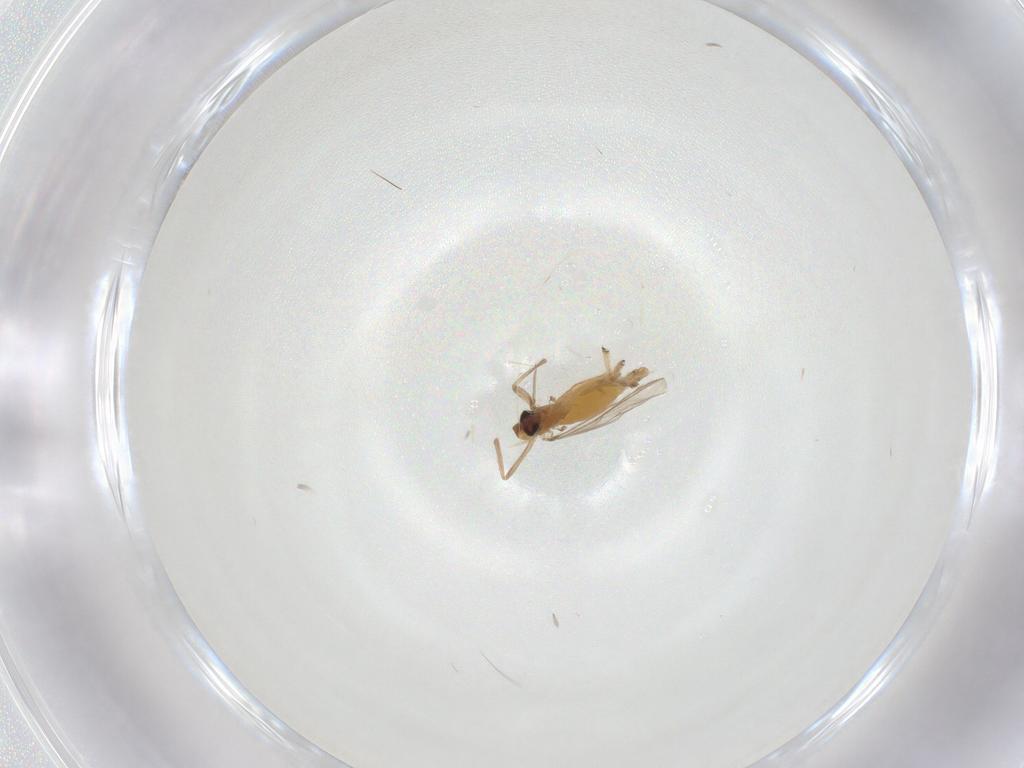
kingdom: Animalia
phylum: Arthropoda
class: Insecta
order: Diptera
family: Chironomidae
